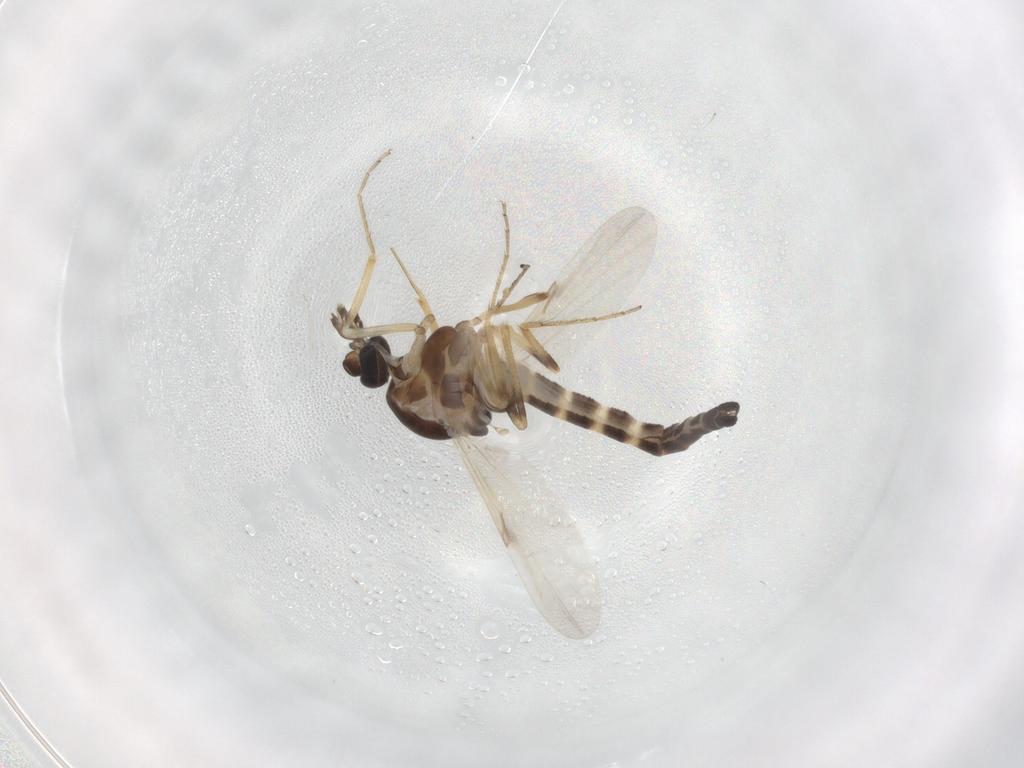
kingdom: Animalia
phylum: Arthropoda
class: Insecta
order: Diptera
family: Ceratopogonidae
